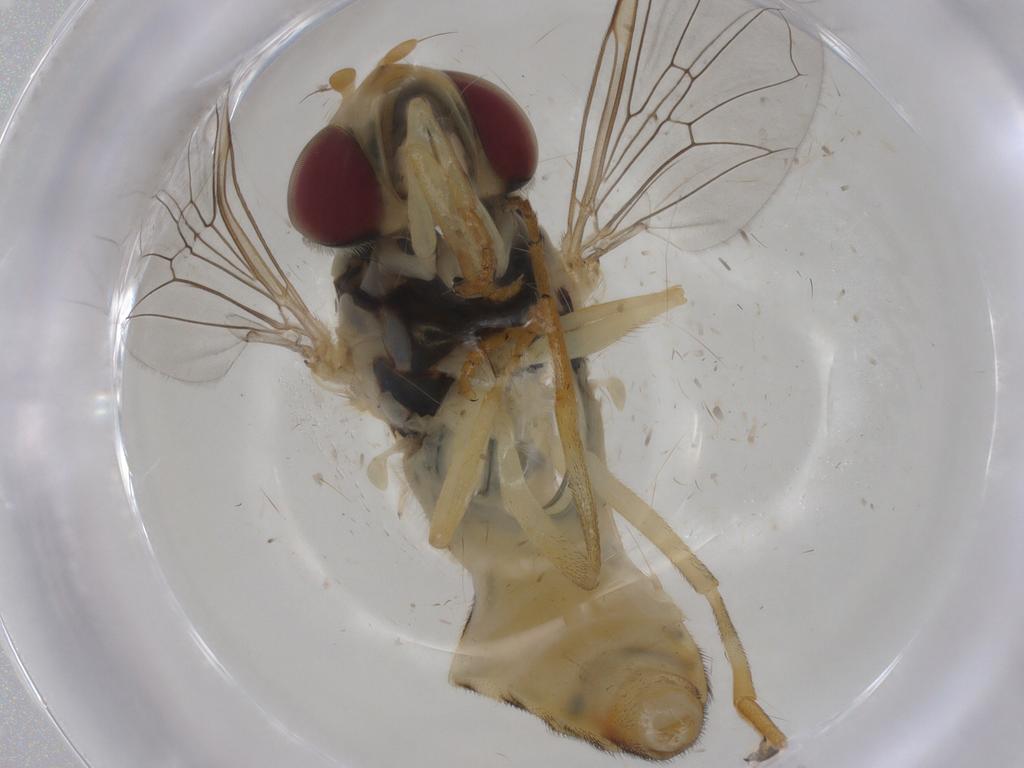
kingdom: Animalia
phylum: Arthropoda
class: Insecta
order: Diptera
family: Syrphidae
